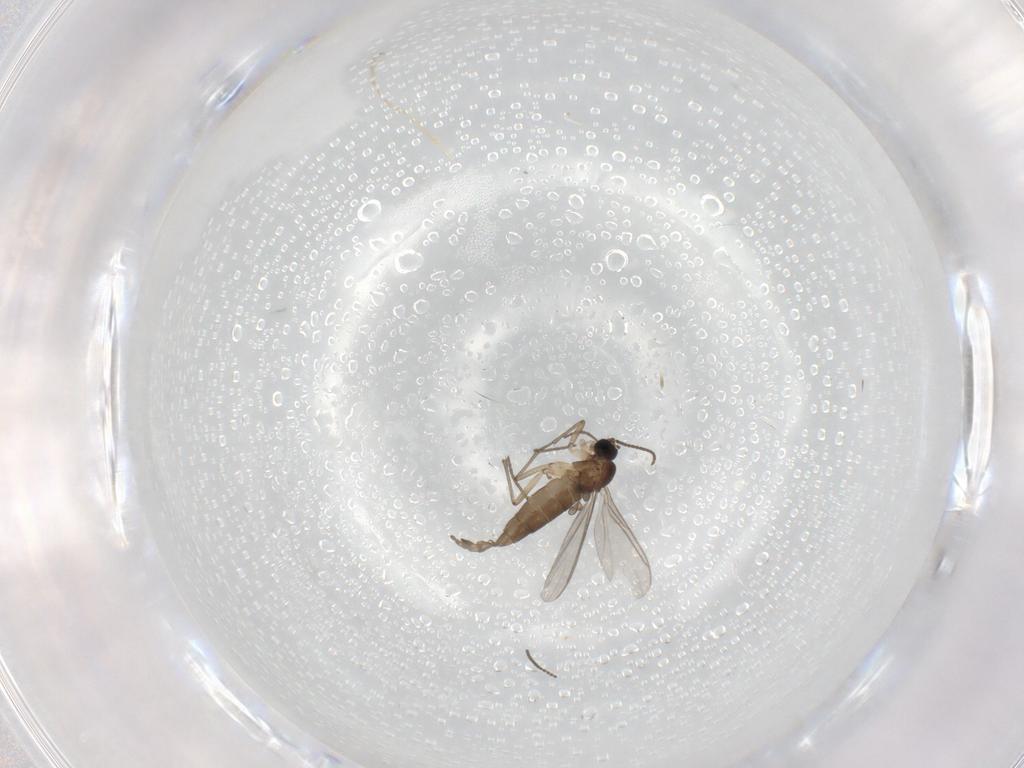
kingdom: Animalia
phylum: Arthropoda
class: Insecta
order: Diptera
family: Sciaridae
